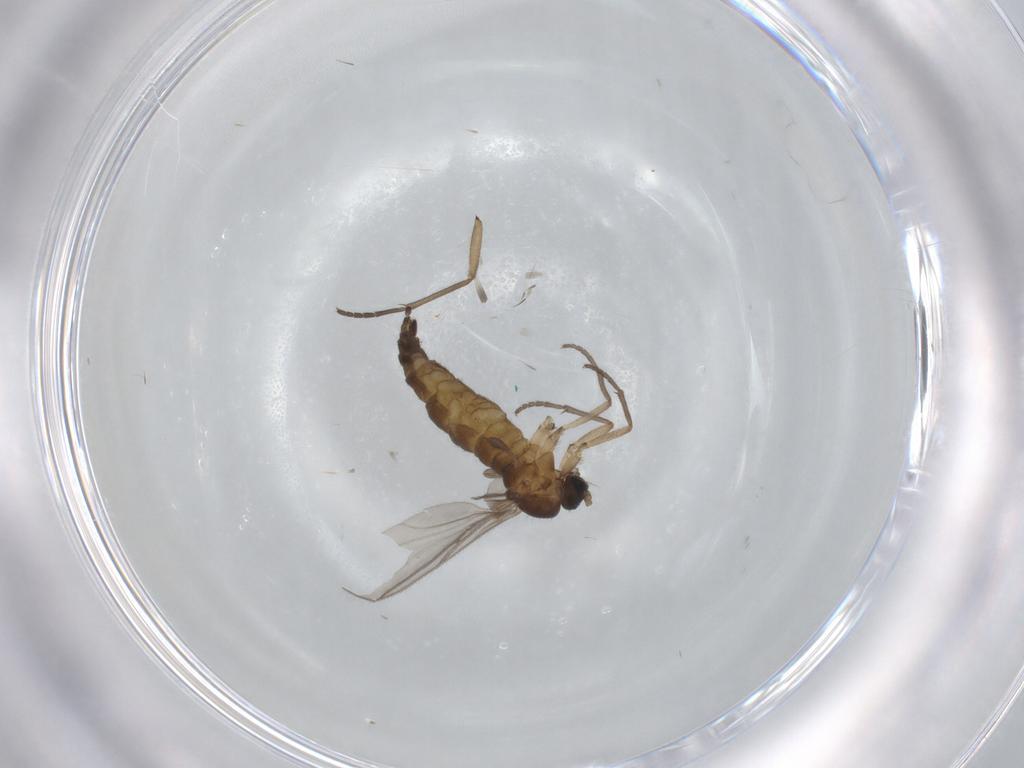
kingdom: Animalia
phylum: Arthropoda
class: Insecta
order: Diptera
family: Sciaridae
